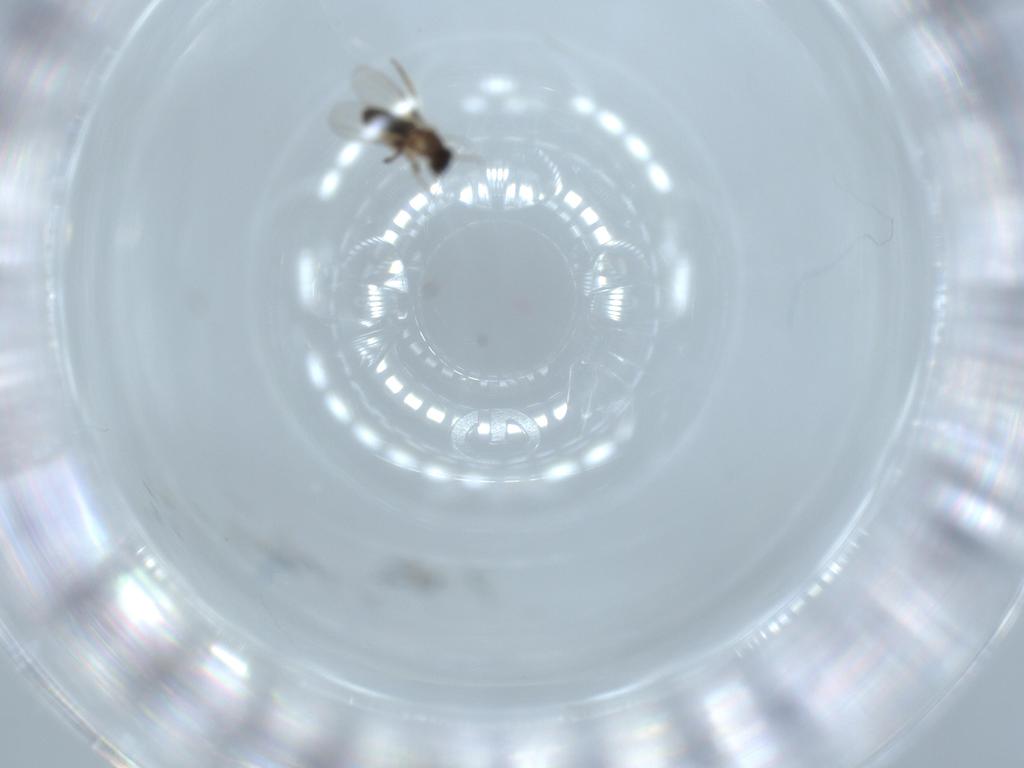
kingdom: Animalia
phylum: Arthropoda
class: Insecta
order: Diptera
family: Phoridae
